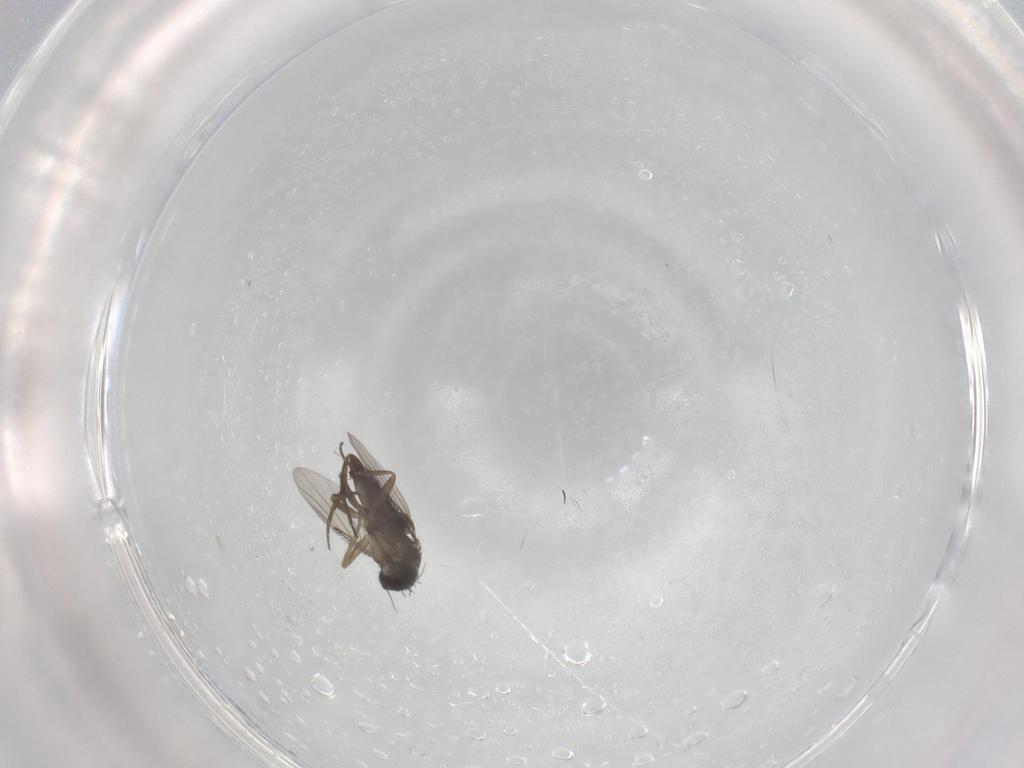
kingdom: Animalia
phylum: Arthropoda
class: Insecta
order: Diptera
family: Phoridae
